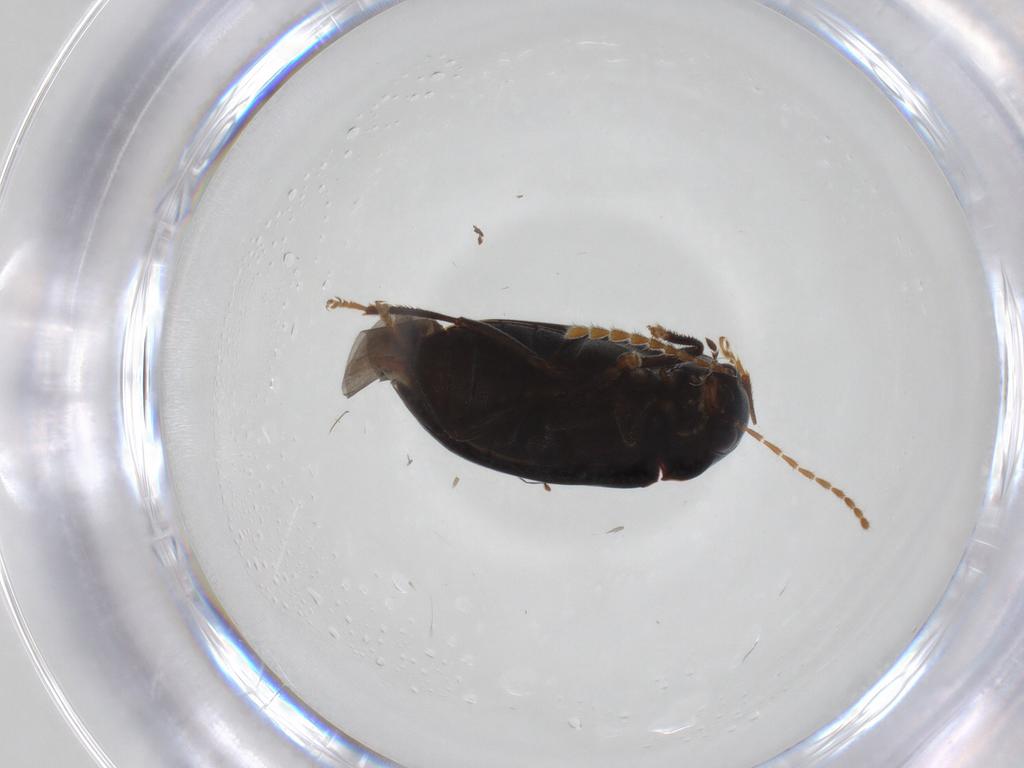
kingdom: Animalia
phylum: Arthropoda
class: Insecta
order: Coleoptera
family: Ptilodactylidae
